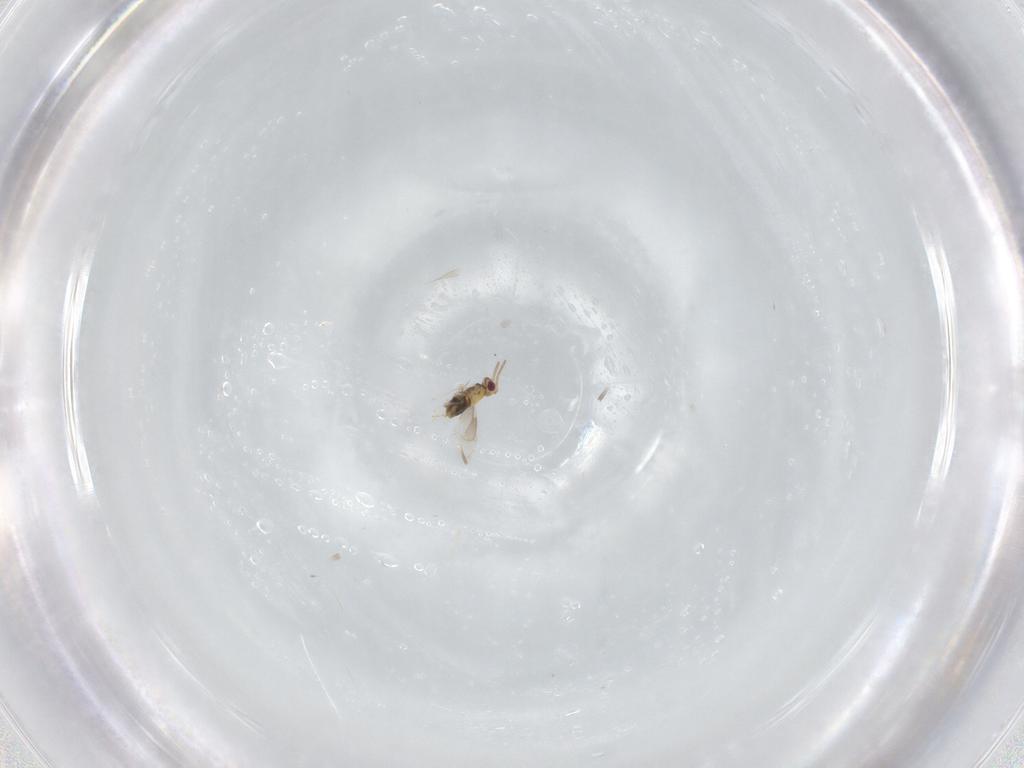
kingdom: Animalia
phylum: Arthropoda
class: Insecta
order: Hymenoptera
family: Aphelinidae
